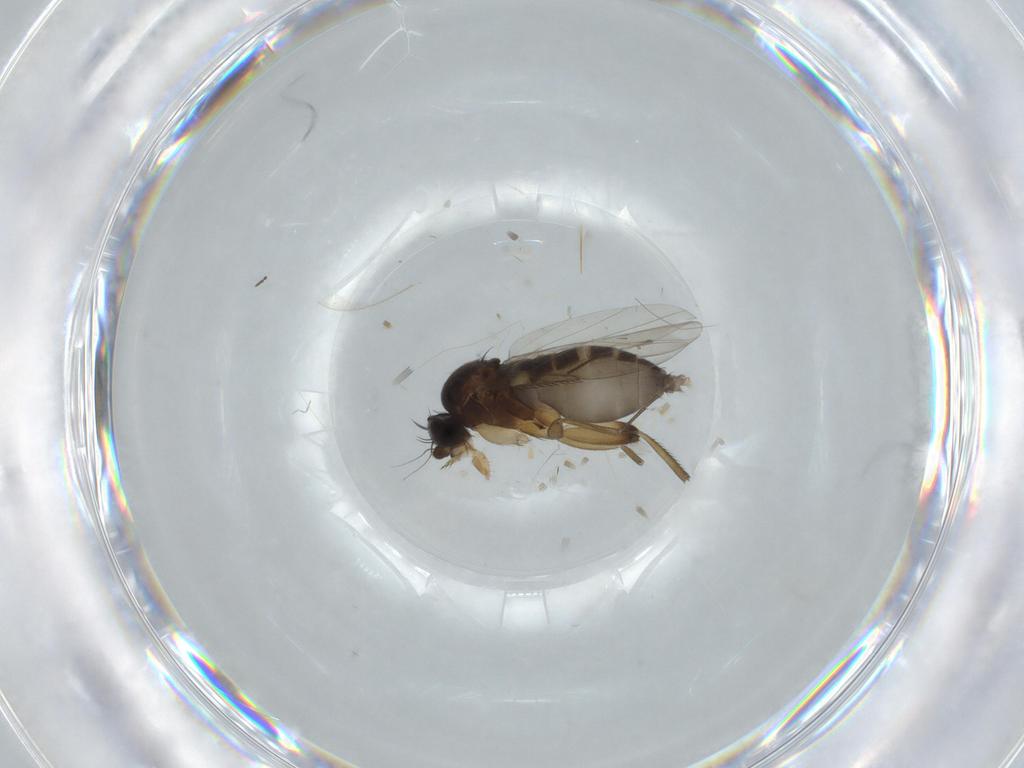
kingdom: Animalia
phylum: Arthropoda
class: Insecta
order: Diptera
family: Phoridae
